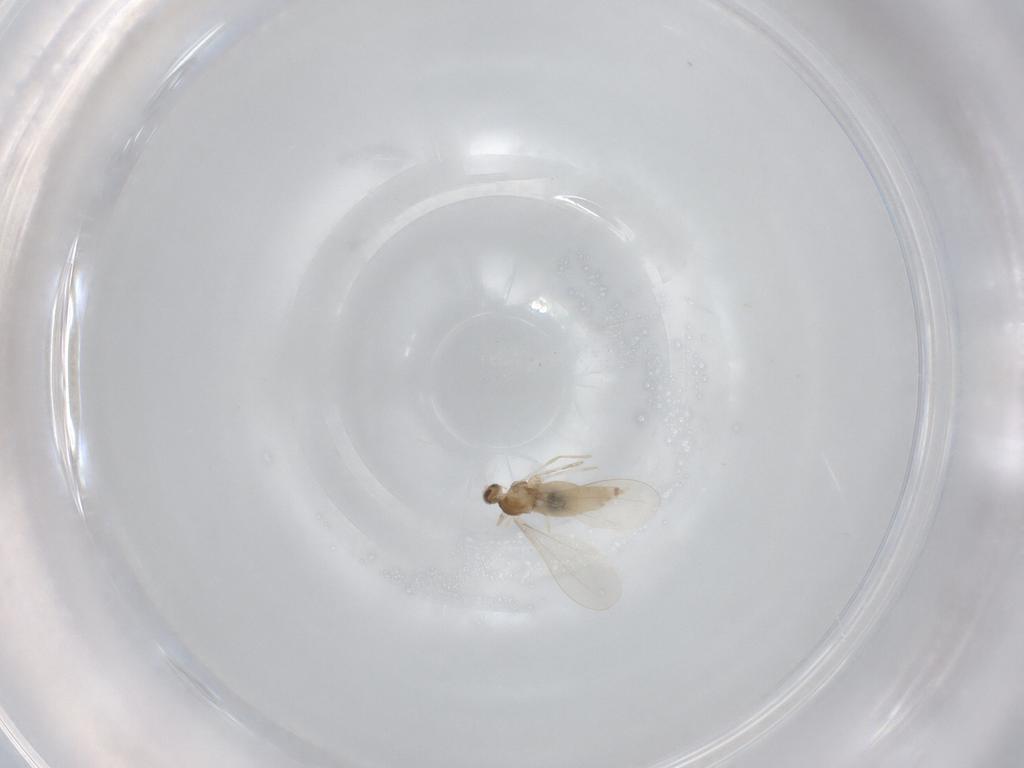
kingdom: Animalia
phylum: Arthropoda
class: Insecta
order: Diptera
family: Cecidomyiidae
